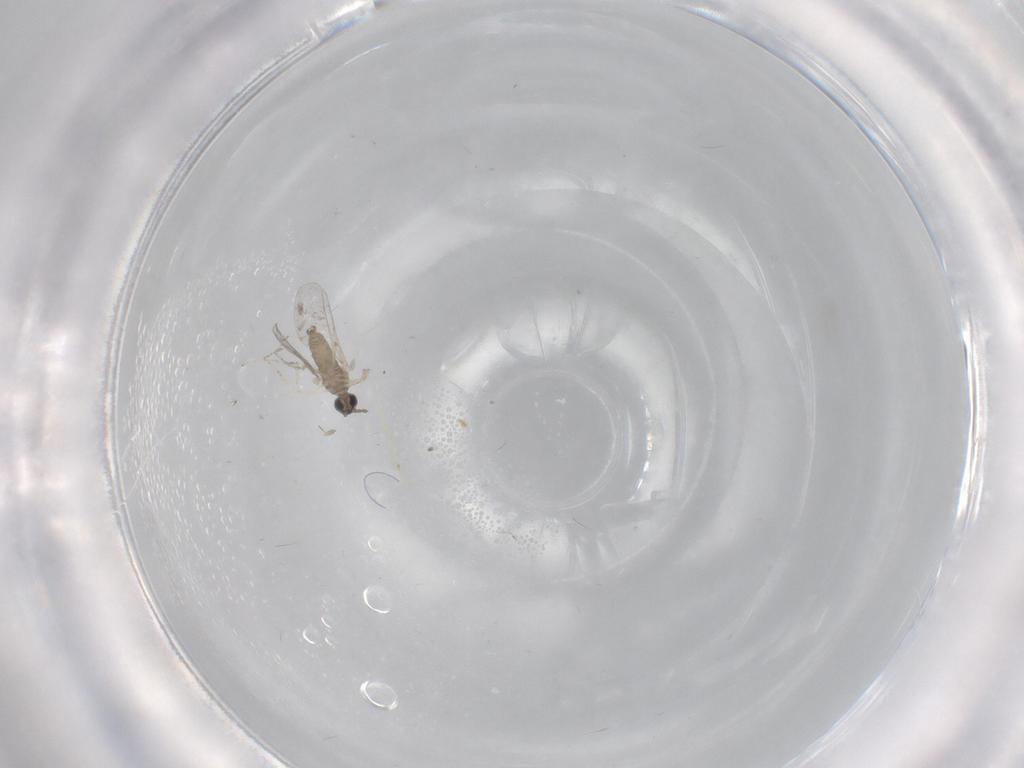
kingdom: Animalia
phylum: Arthropoda
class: Insecta
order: Diptera
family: Cecidomyiidae
